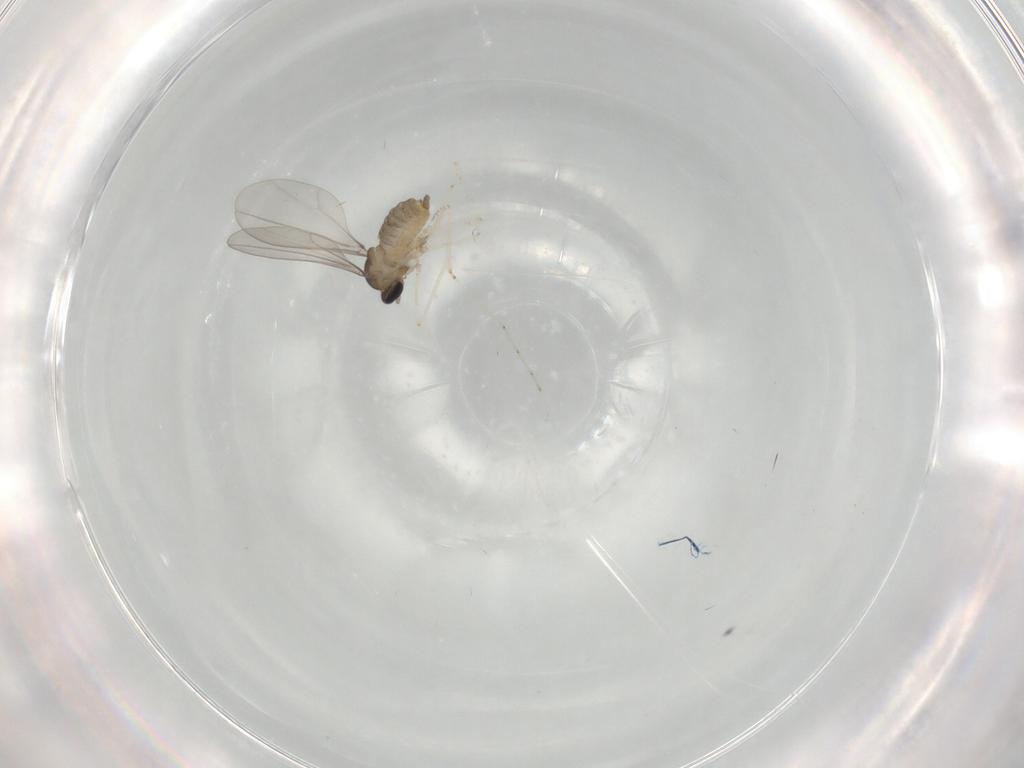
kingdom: Animalia
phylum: Arthropoda
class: Insecta
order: Diptera
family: Cecidomyiidae
